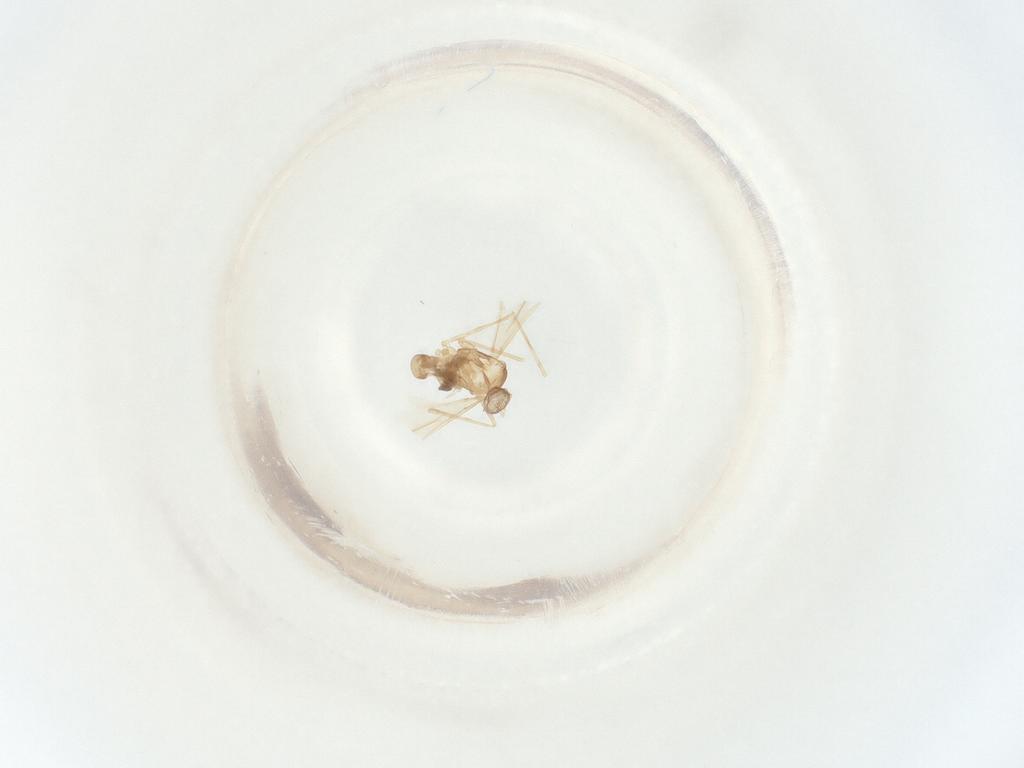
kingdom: Animalia
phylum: Arthropoda
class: Insecta
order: Diptera
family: Cecidomyiidae
